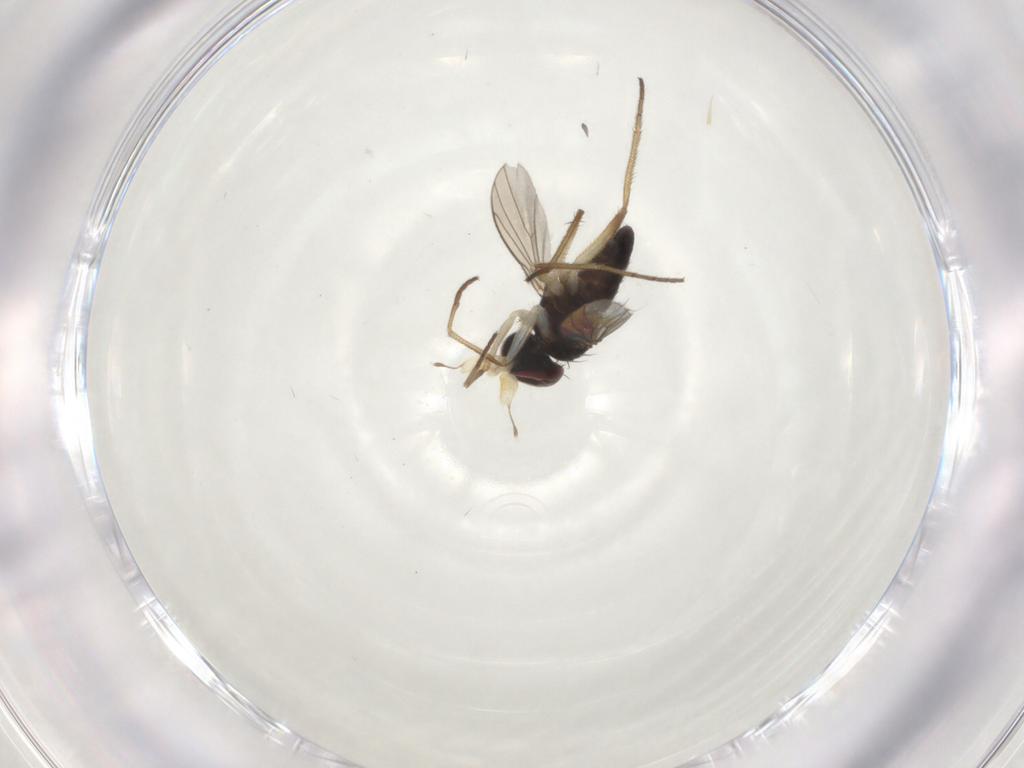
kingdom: Animalia
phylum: Arthropoda
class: Insecta
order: Diptera
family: Dolichopodidae
